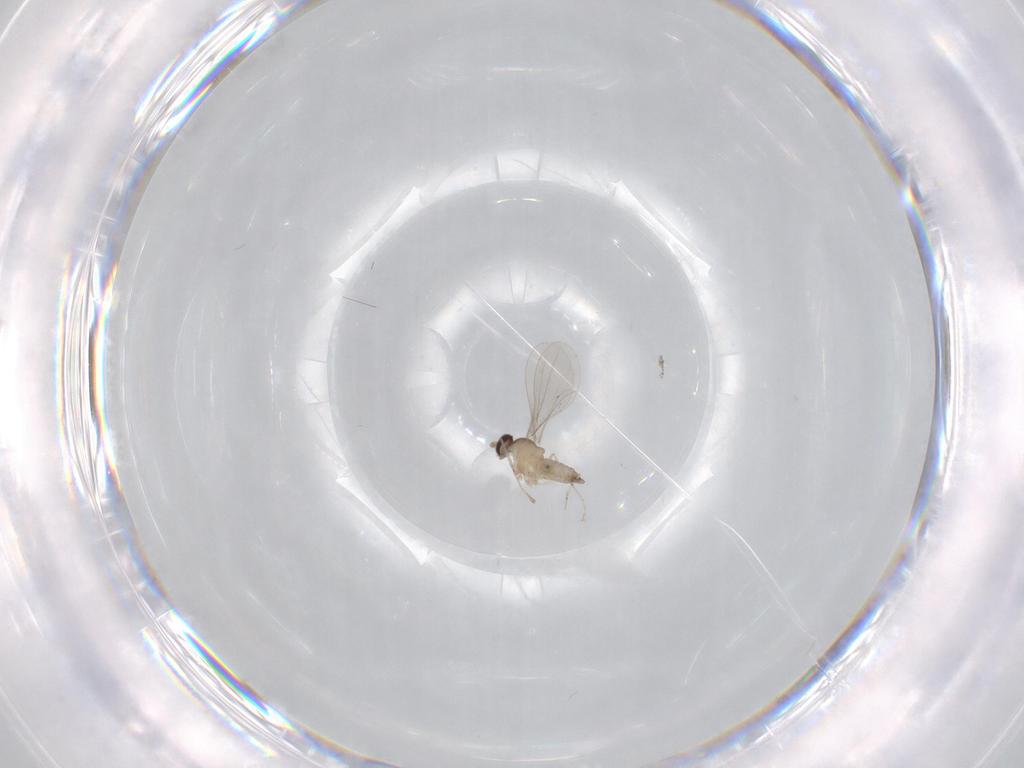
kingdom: Animalia
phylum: Arthropoda
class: Insecta
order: Diptera
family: Cecidomyiidae
